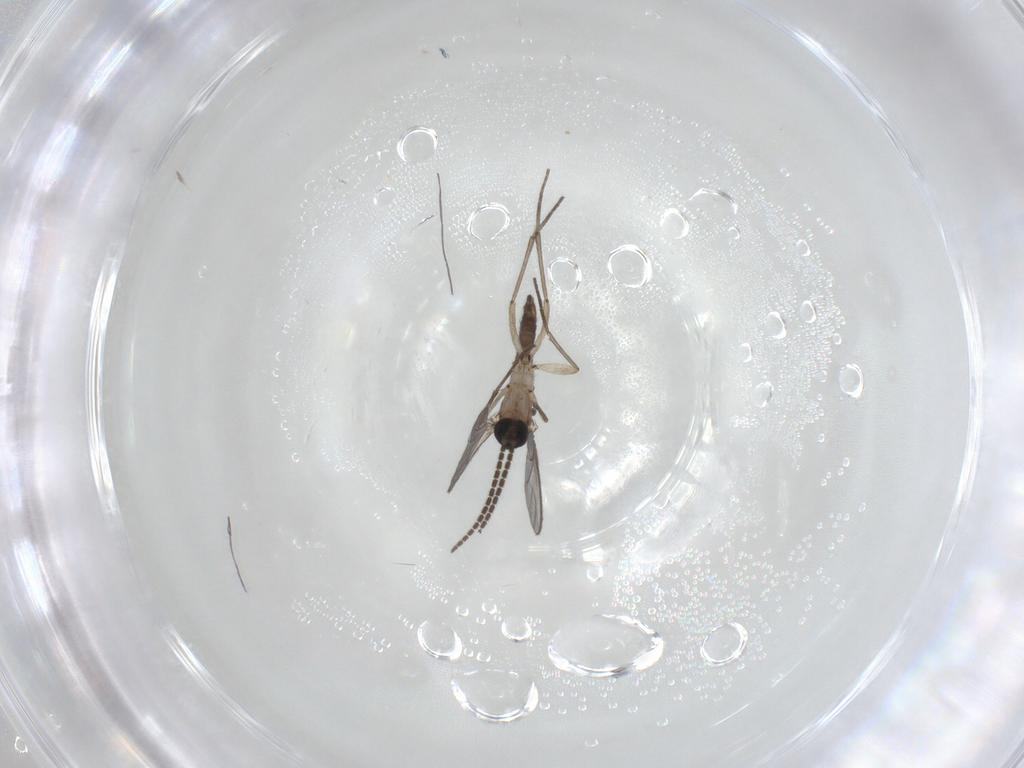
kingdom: Animalia
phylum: Arthropoda
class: Insecta
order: Diptera
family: Sciaridae
